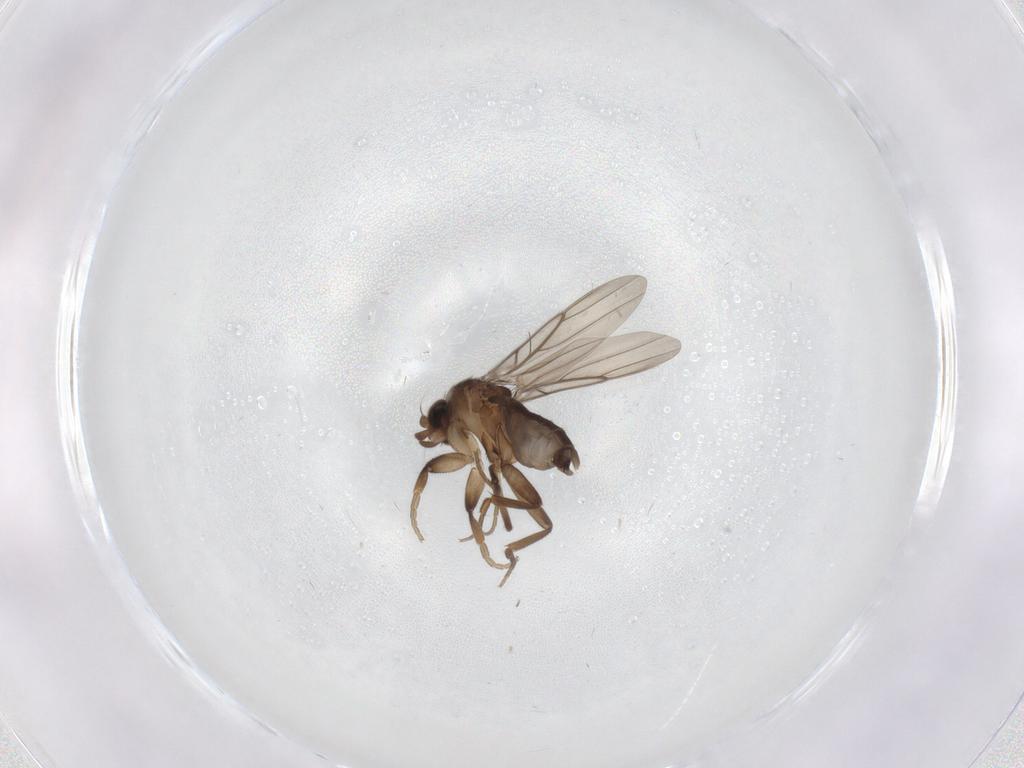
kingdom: Animalia
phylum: Arthropoda
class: Insecta
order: Diptera
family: Phoridae
